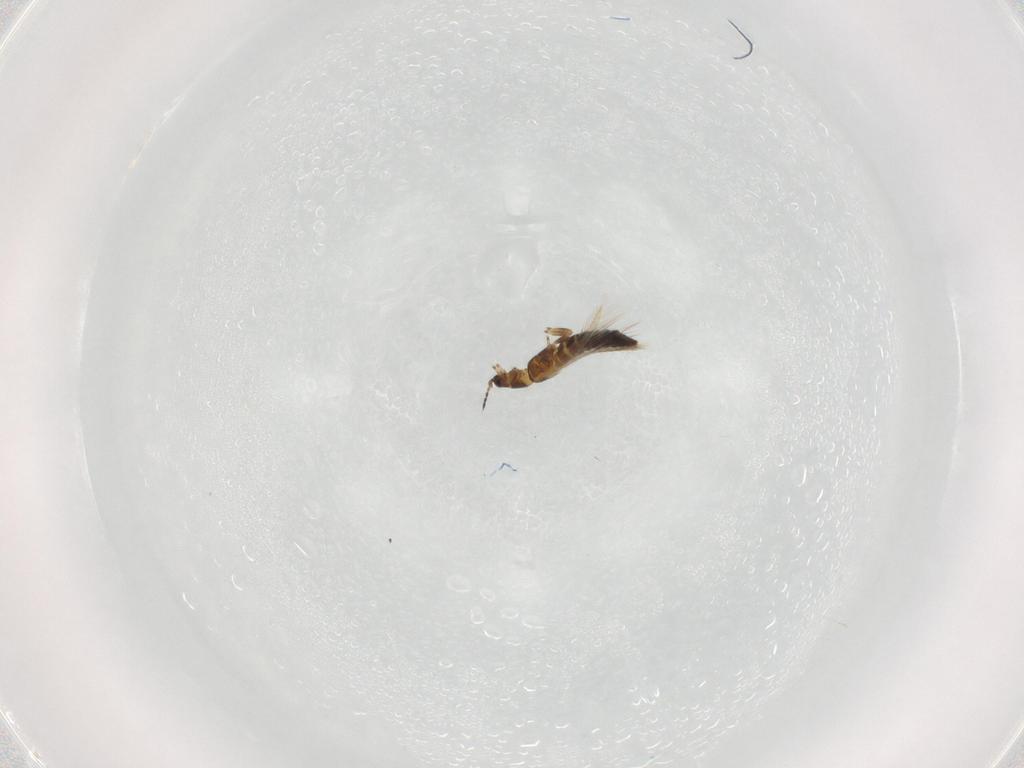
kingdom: Animalia
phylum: Arthropoda
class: Insecta
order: Thysanoptera
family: Thripidae
